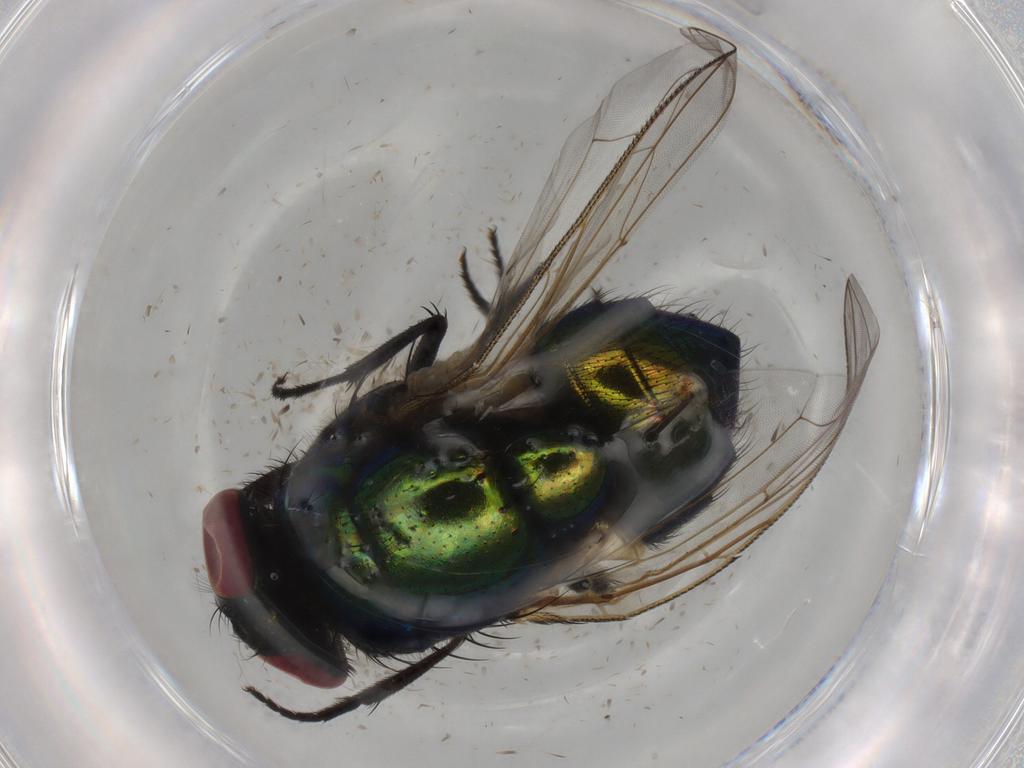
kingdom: Animalia
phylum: Arthropoda
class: Insecta
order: Diptera
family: Muscidae
